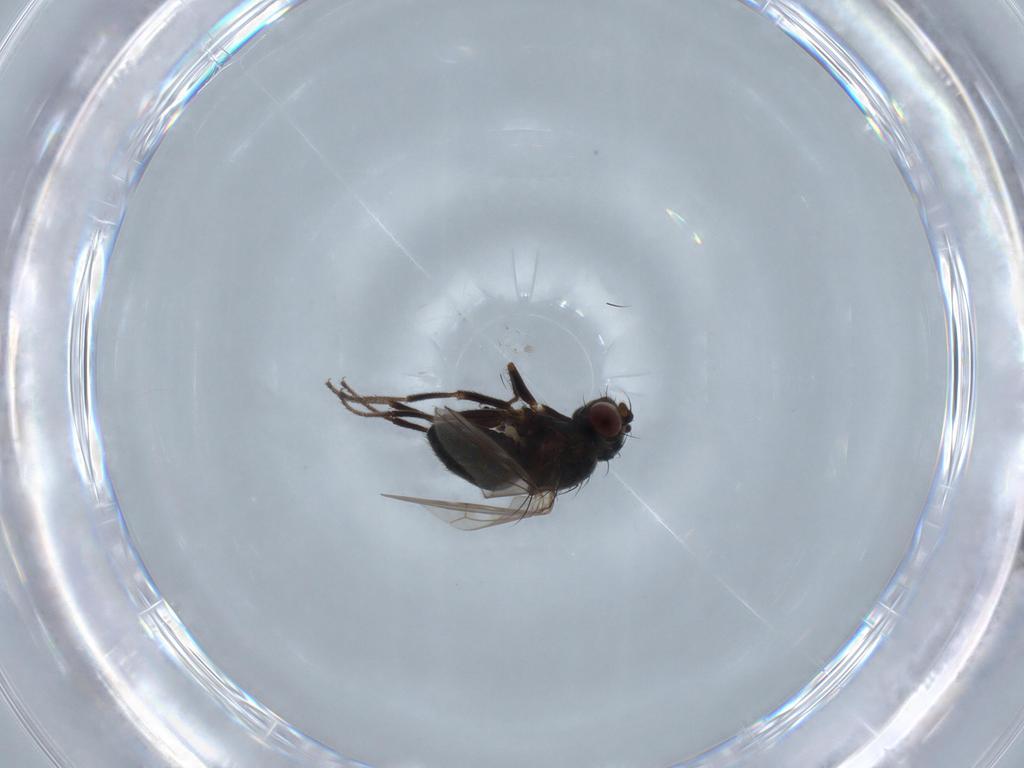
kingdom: Animalia
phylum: Arthropoda
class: Insecta
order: Diptera
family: Ephydridae
